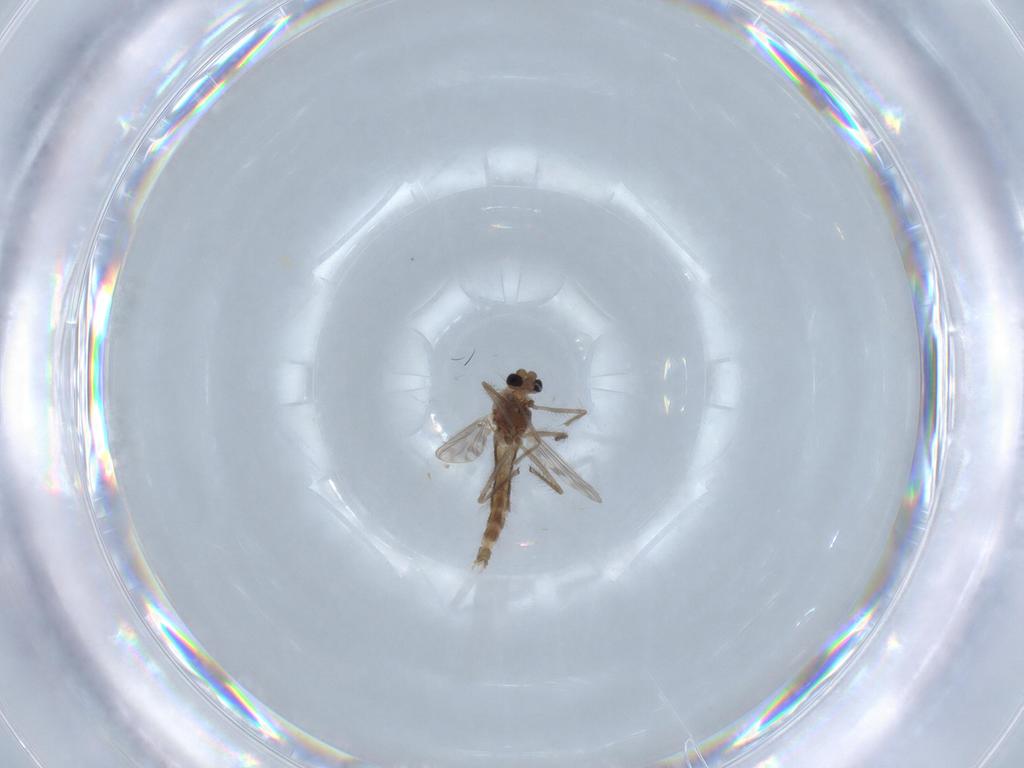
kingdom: Animalia
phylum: Arthropoda
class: Insecta
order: Diptera
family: Chironomidae
